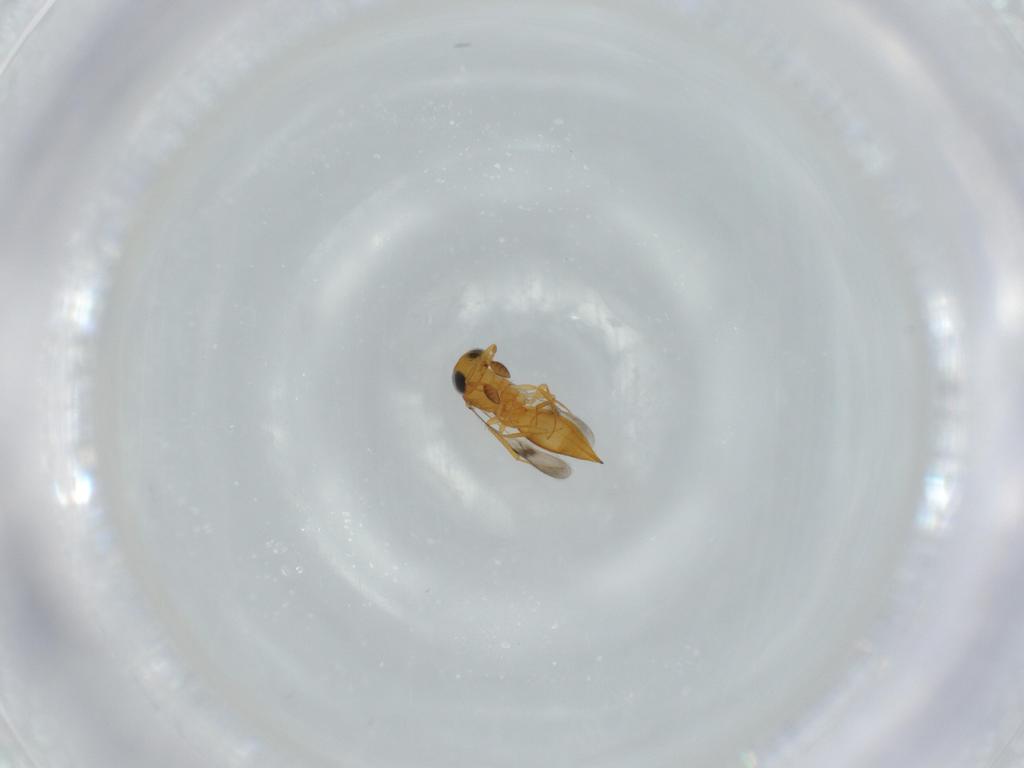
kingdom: Animalia
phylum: Arthropoda
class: Insecta
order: Hymenoptera
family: Scelionidae
